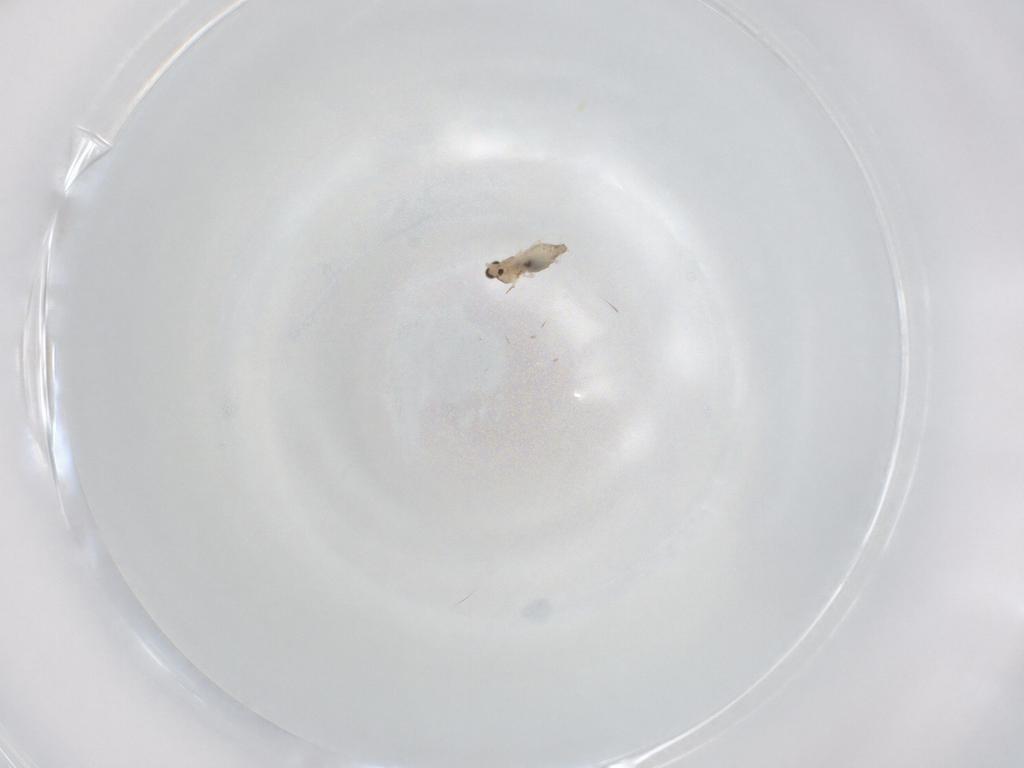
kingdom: Animalia
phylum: Arthropoda
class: Insecta
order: Diptera
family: Cecidomyiidae
